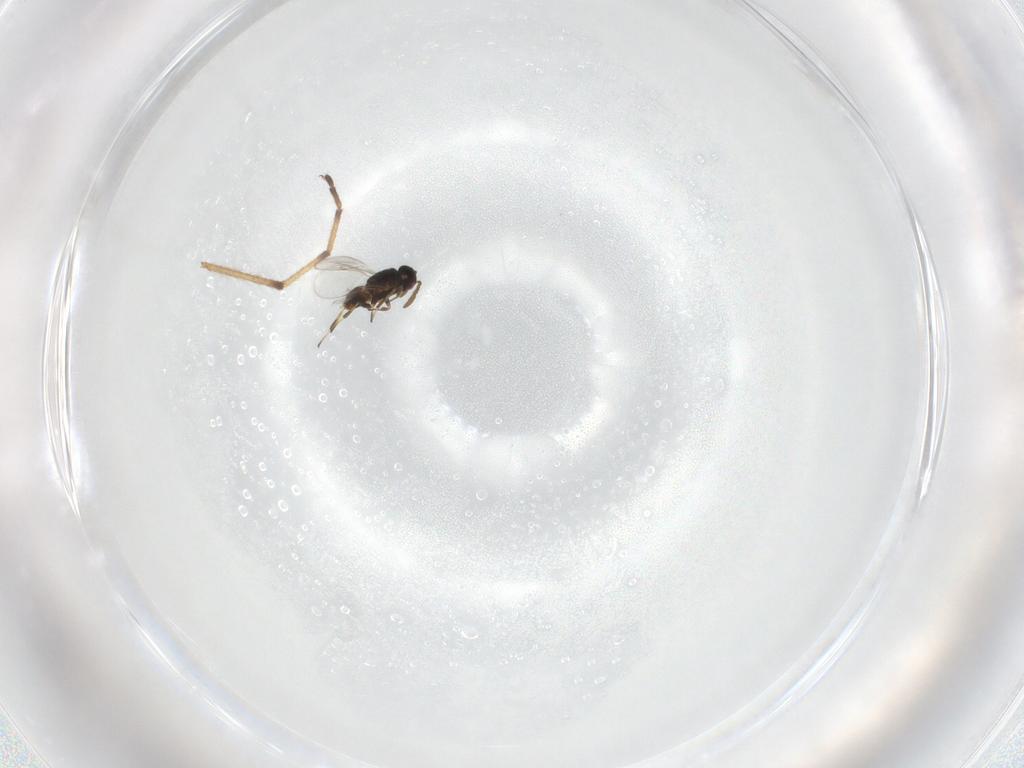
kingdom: Animalia
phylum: Arthropoda
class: Insecta
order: Hymenoptera
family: Encyrtidae
